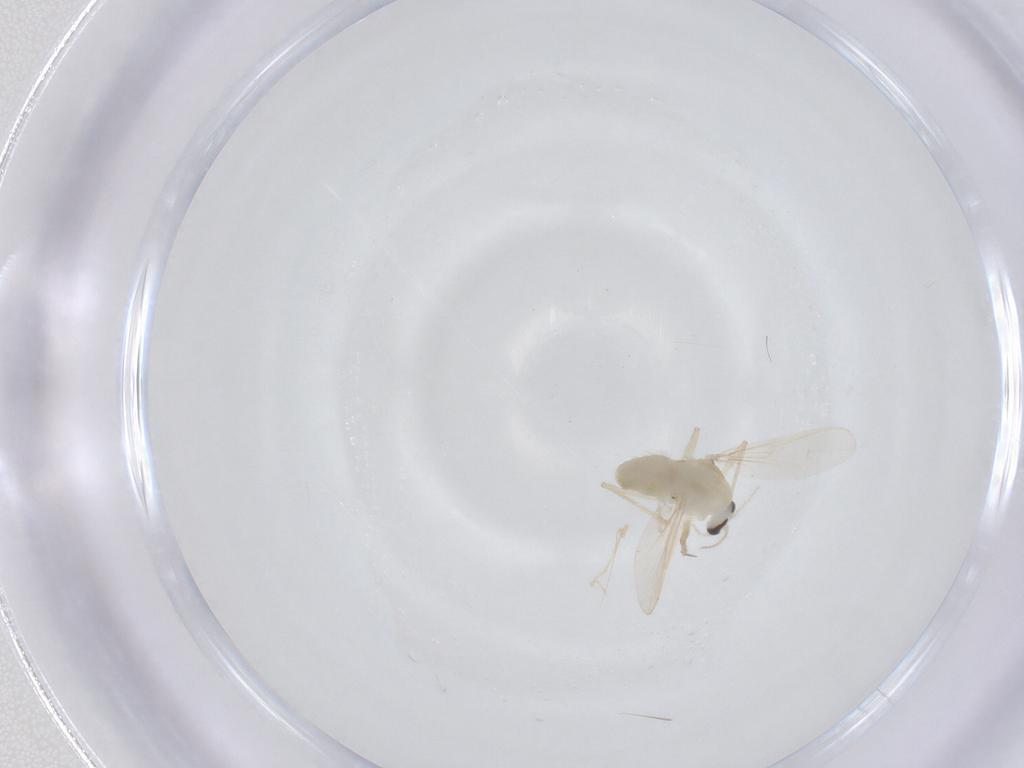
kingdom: Animalia
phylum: Arthropoda
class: Insecta
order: Diptera
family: Culicidae
